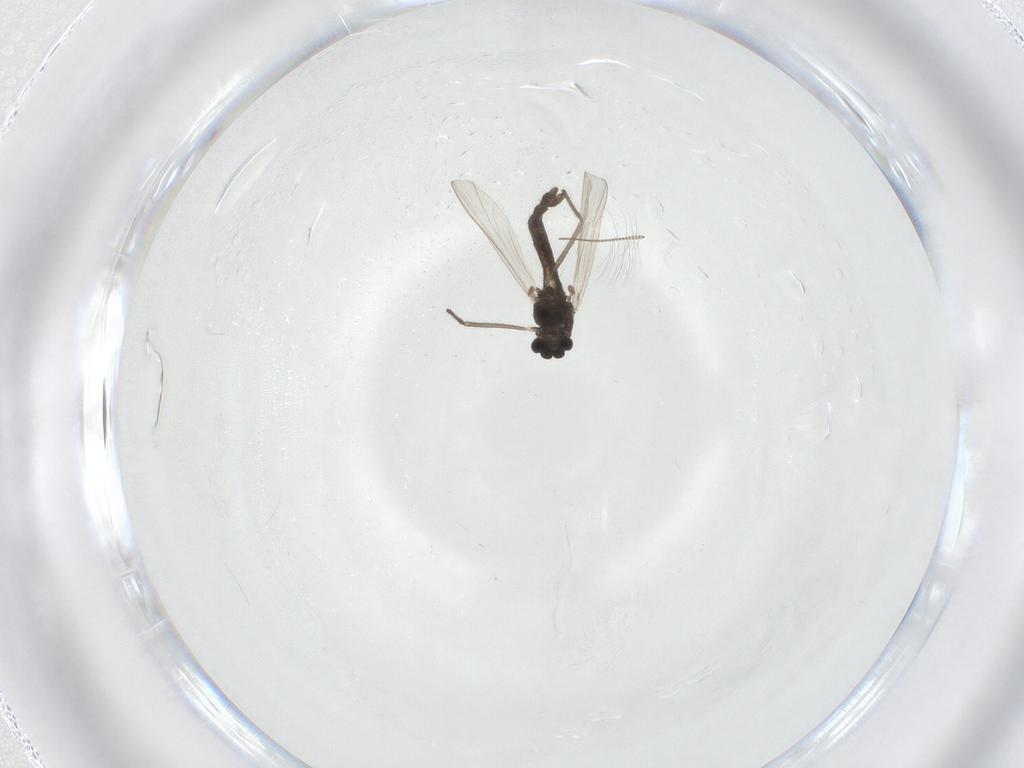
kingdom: Animalia
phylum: Arthropoda
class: Insecta
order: Diptera
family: Chironomidae
